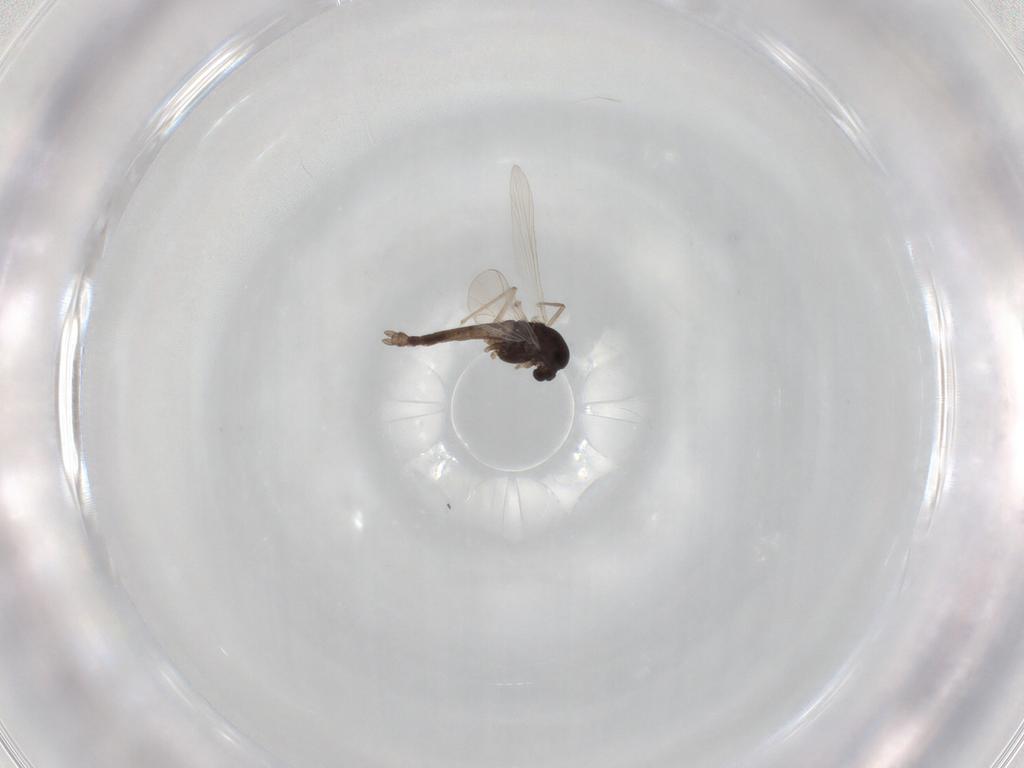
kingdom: Animalia
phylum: Arthropoda
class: Insecta
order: Diptera
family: Chironomidae
